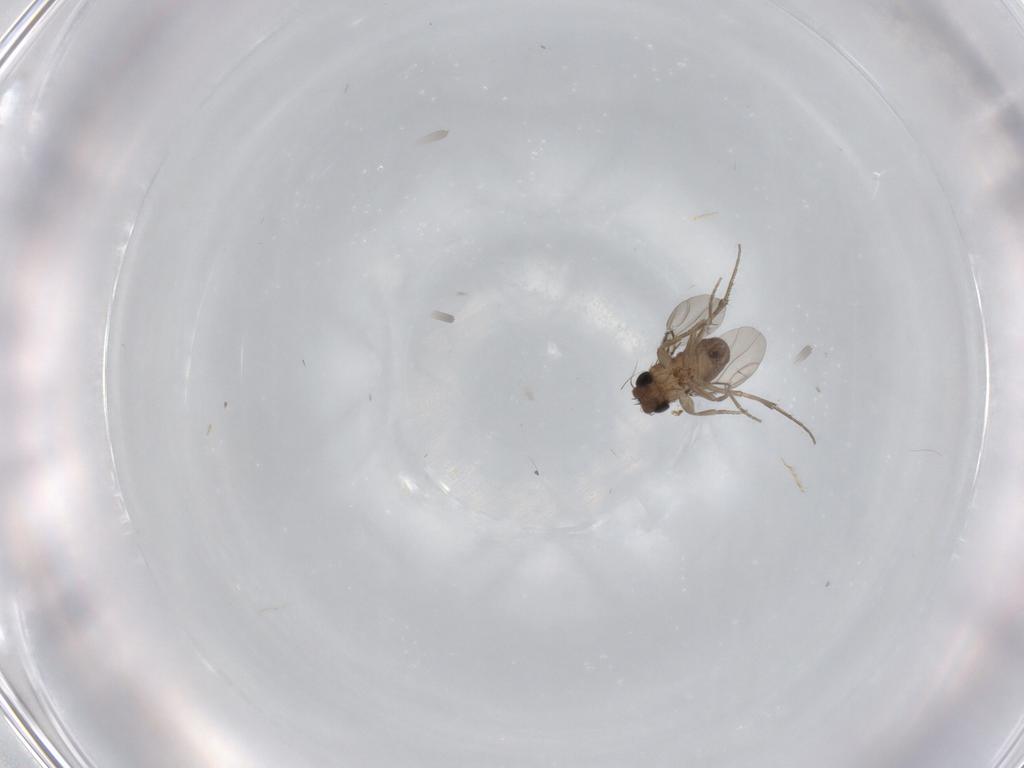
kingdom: Animalia
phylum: Arthropoda
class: Insecta
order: Diptera
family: Phoridae
